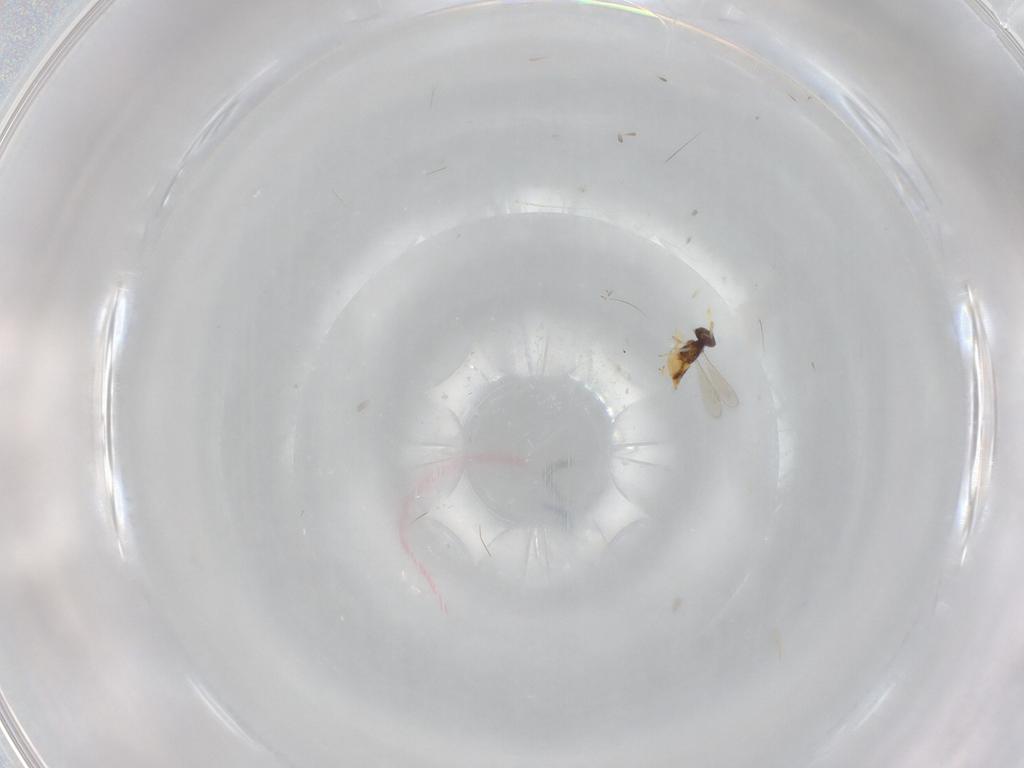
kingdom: Animalia
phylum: Arthropoda
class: Insecta
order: Hymenoptera
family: Aphelinidae
